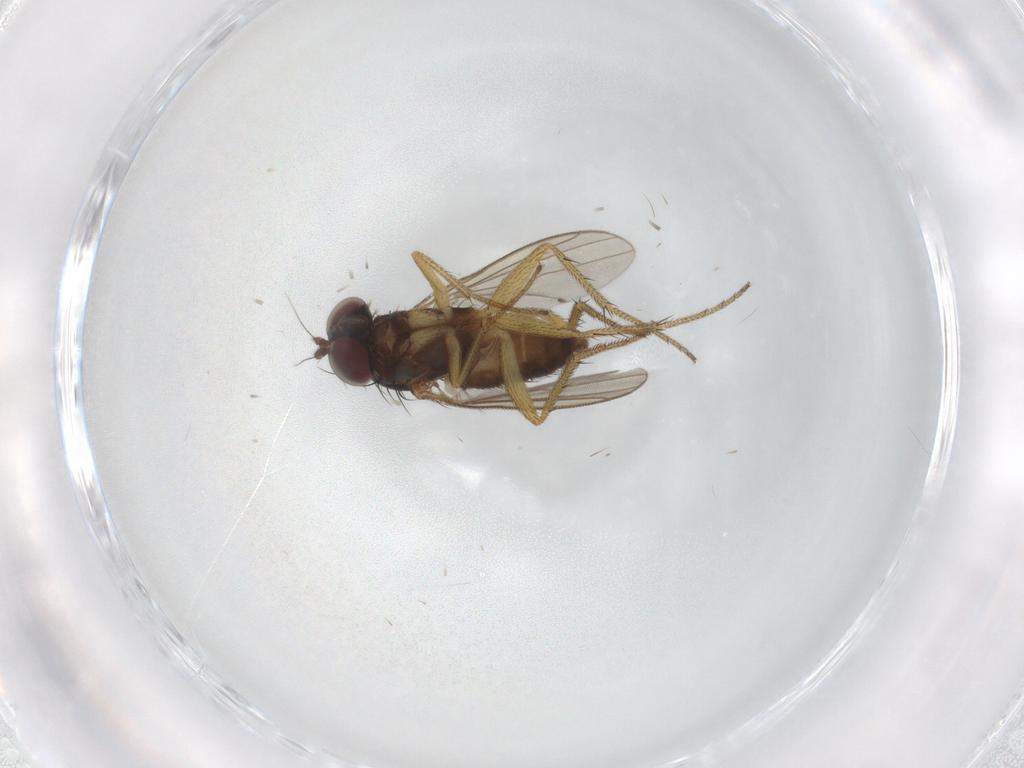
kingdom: Animalia
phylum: Arthropoda
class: Insecta
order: Diptera
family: Dolichopodidae
